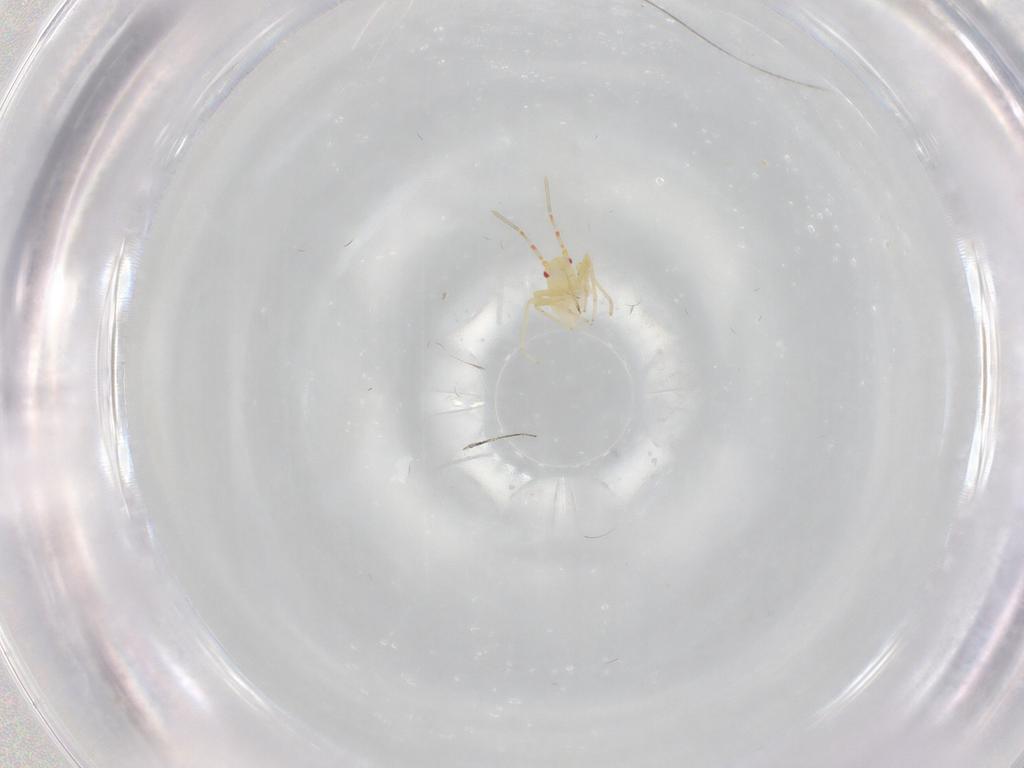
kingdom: Animalia
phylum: Arthropoda
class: Insecta
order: Hemiptera
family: Miridae
